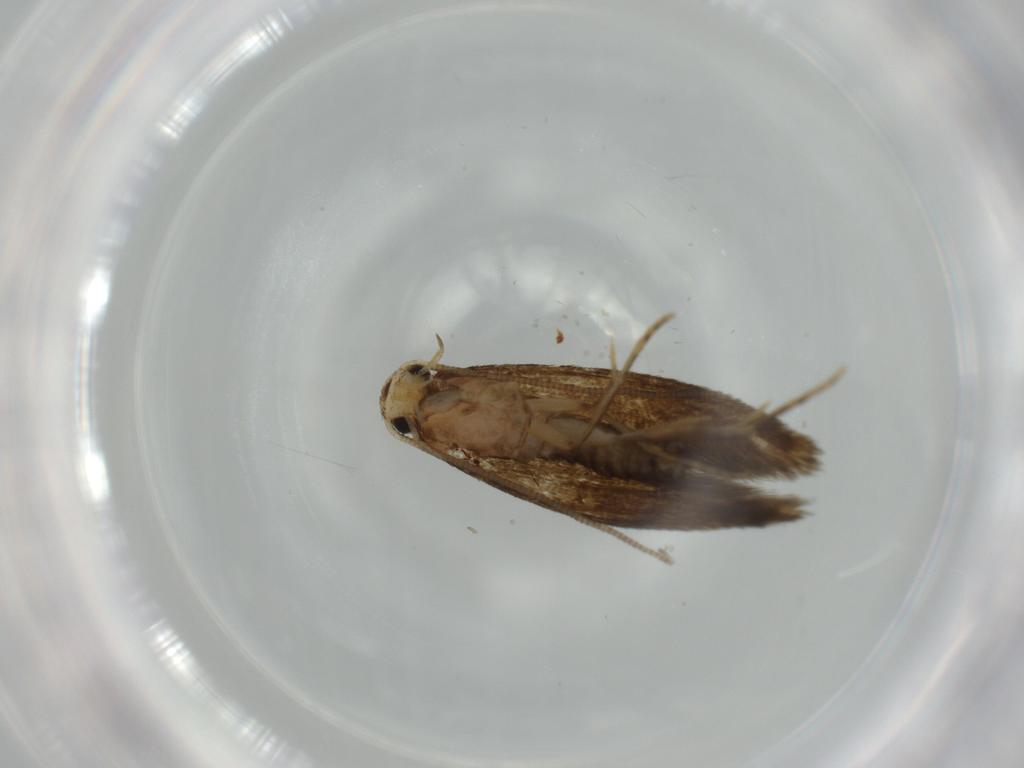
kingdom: Animalia
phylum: Arthropoda
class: Insecta
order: Lepidoptera
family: Tineidae
